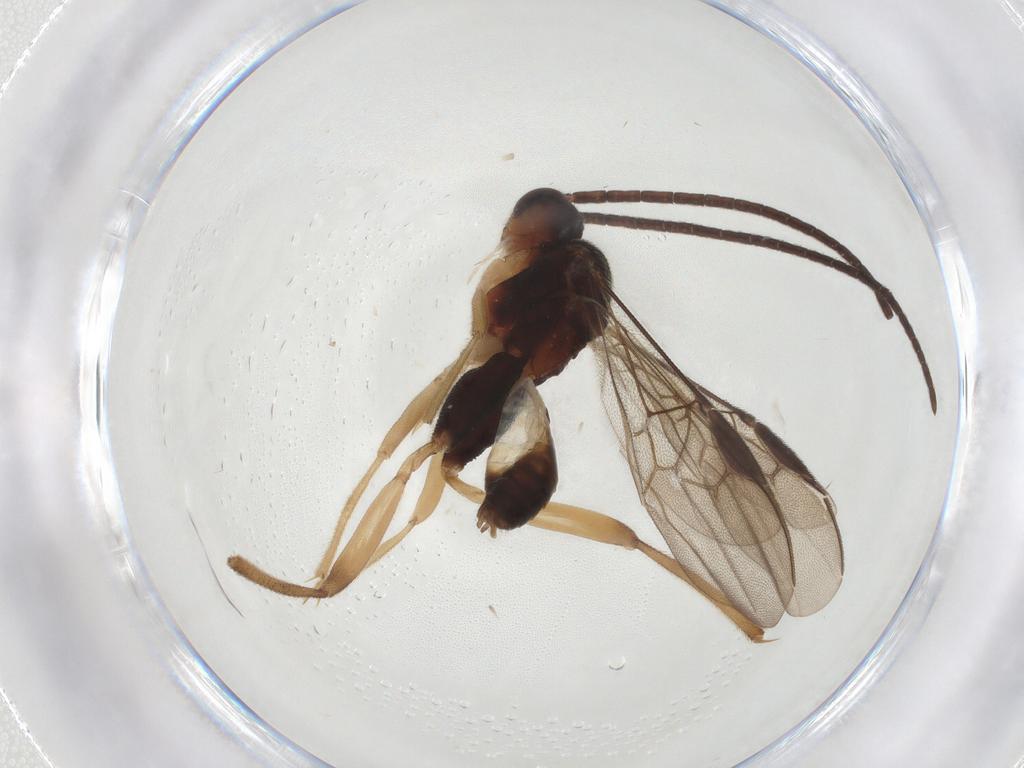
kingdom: Animalia
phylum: Arthropoda
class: Insecta
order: Hymenoptera
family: Braconidae
